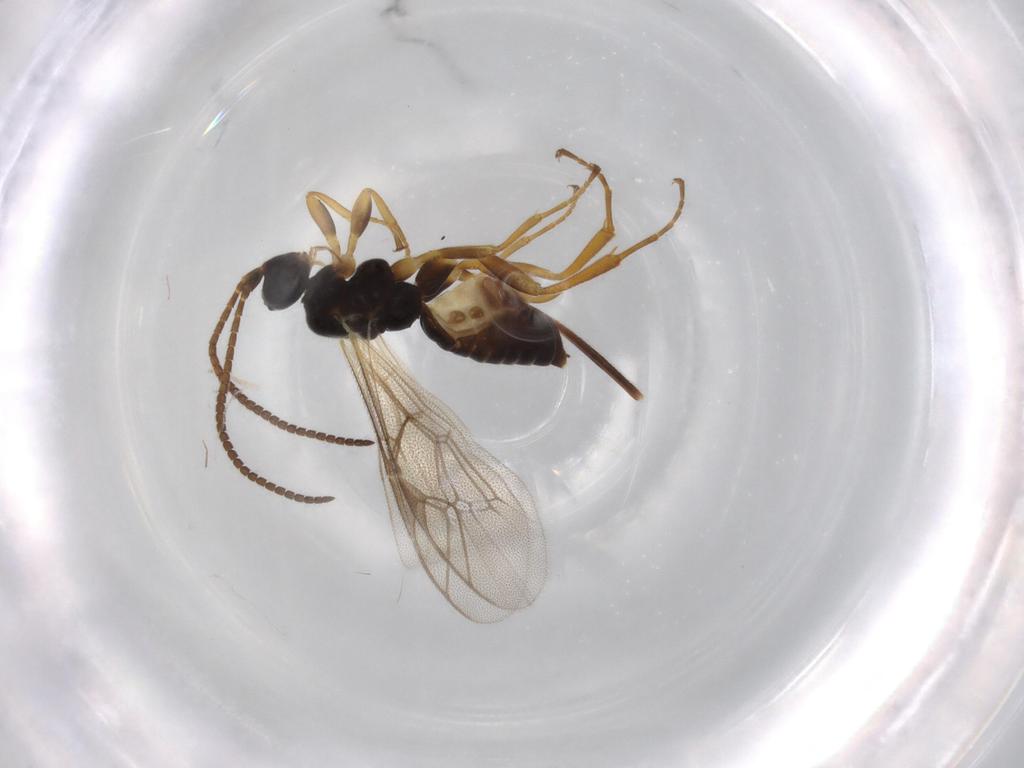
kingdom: Animalia
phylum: Arthropoda
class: Insecta
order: Hymenoptera
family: Ichneumonidae
